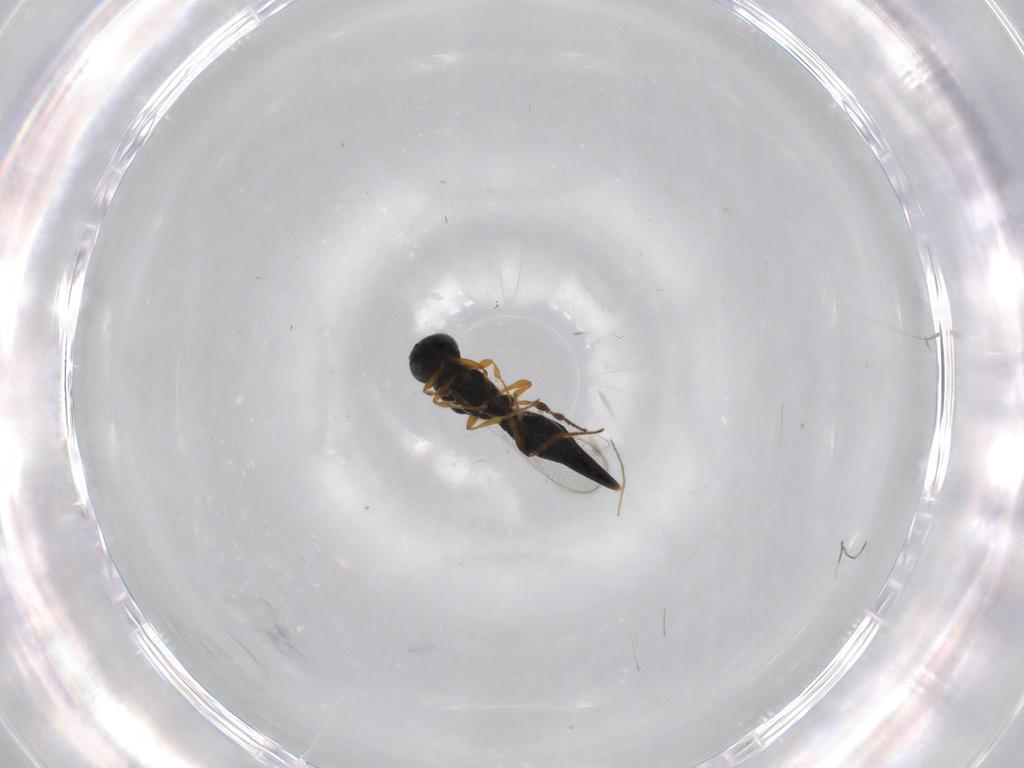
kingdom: Animalia
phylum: Arthropoda
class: Insecta
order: Hymenoptera
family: Platygastridae
